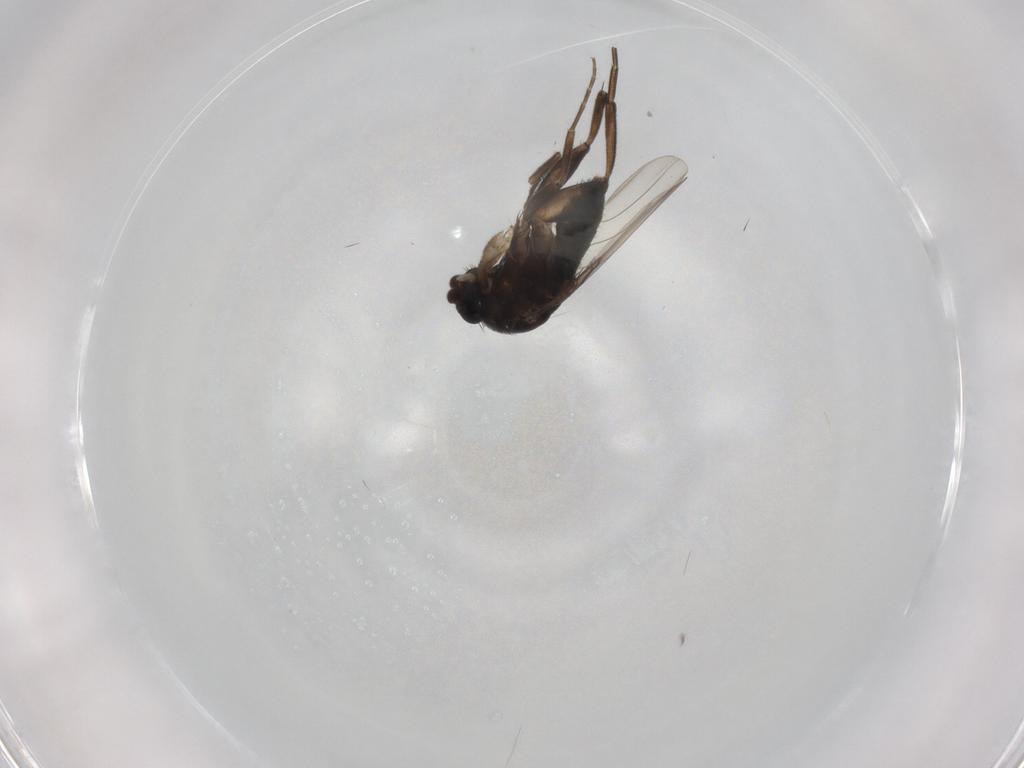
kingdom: Animalia
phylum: Arthropoda
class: Insecta
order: Diptera
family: Phoridae
